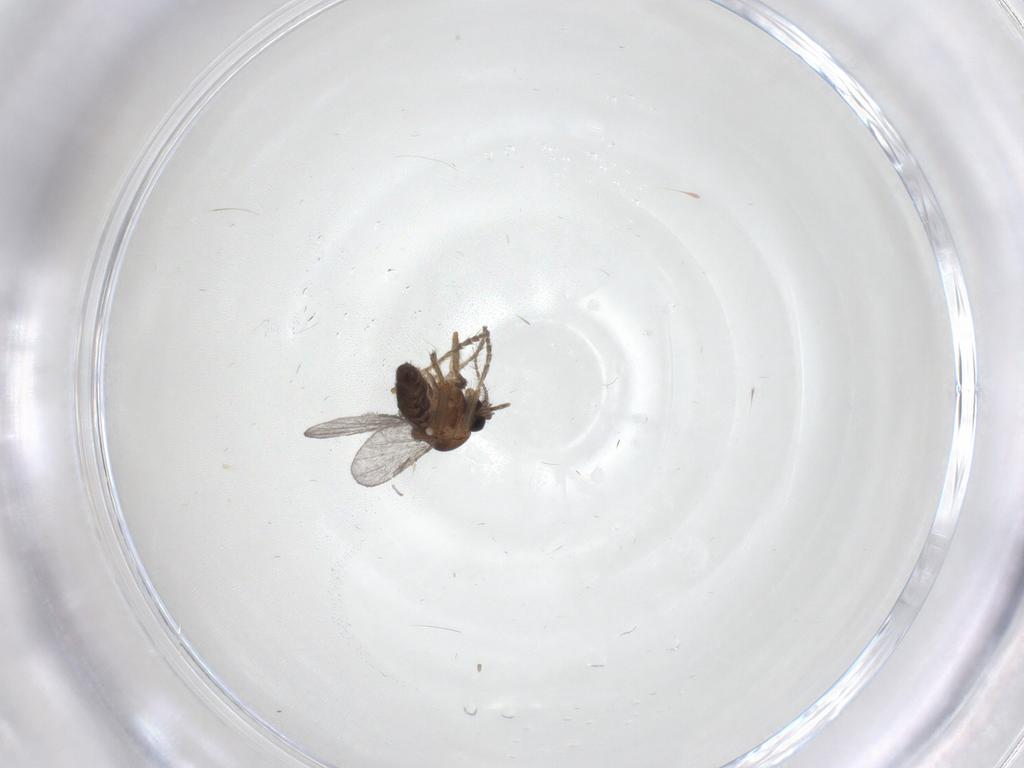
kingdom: Animalia
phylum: Arthropoda
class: Insecta
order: Diptera
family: Ceratopogonidae
